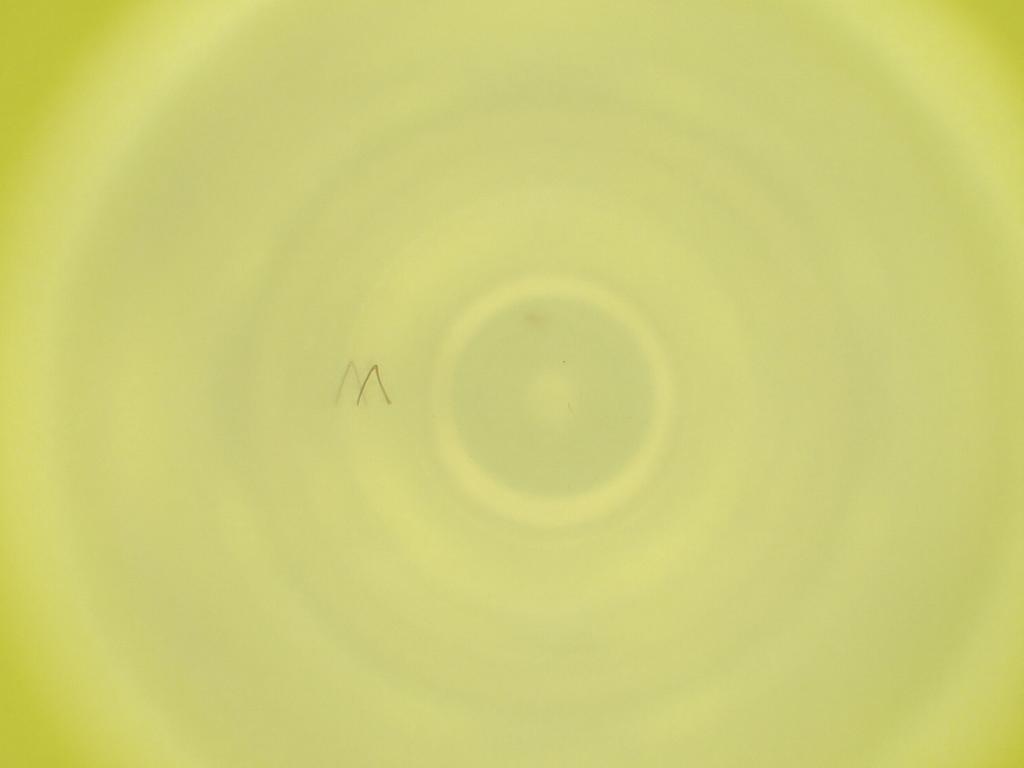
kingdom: Animalia
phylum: Arthropoda
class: Insecta
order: Diptera
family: Cecidomyiidae
